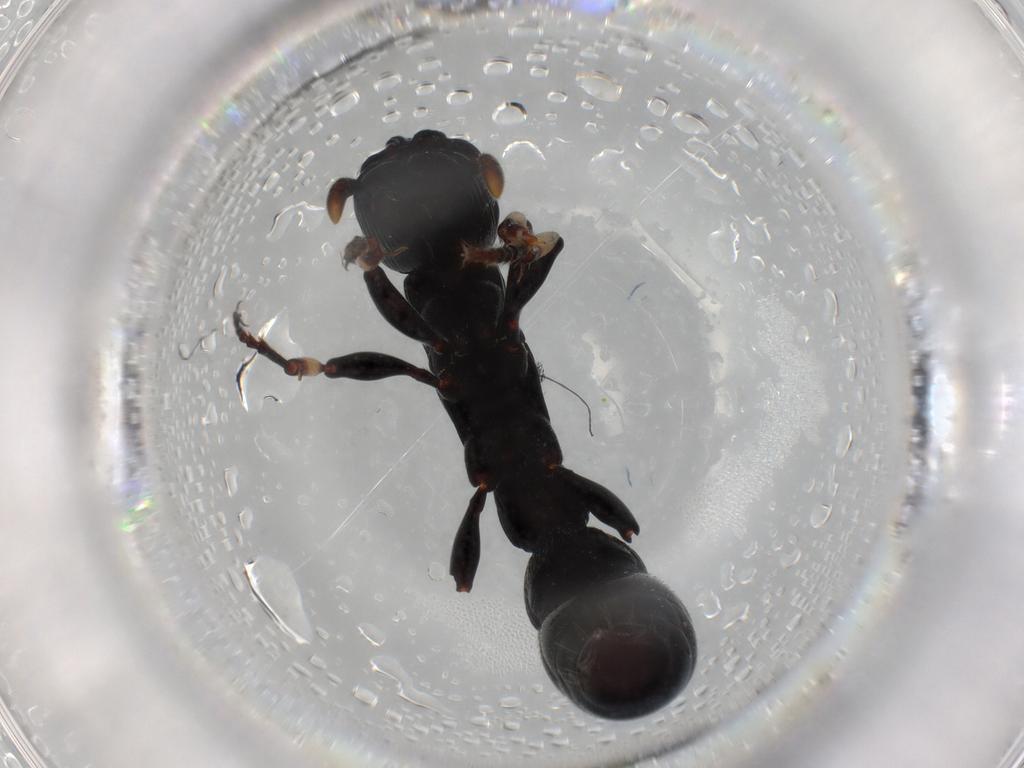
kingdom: Animalia
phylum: Arthropoda
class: Insecta
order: Hymenoptera
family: Formicidae
